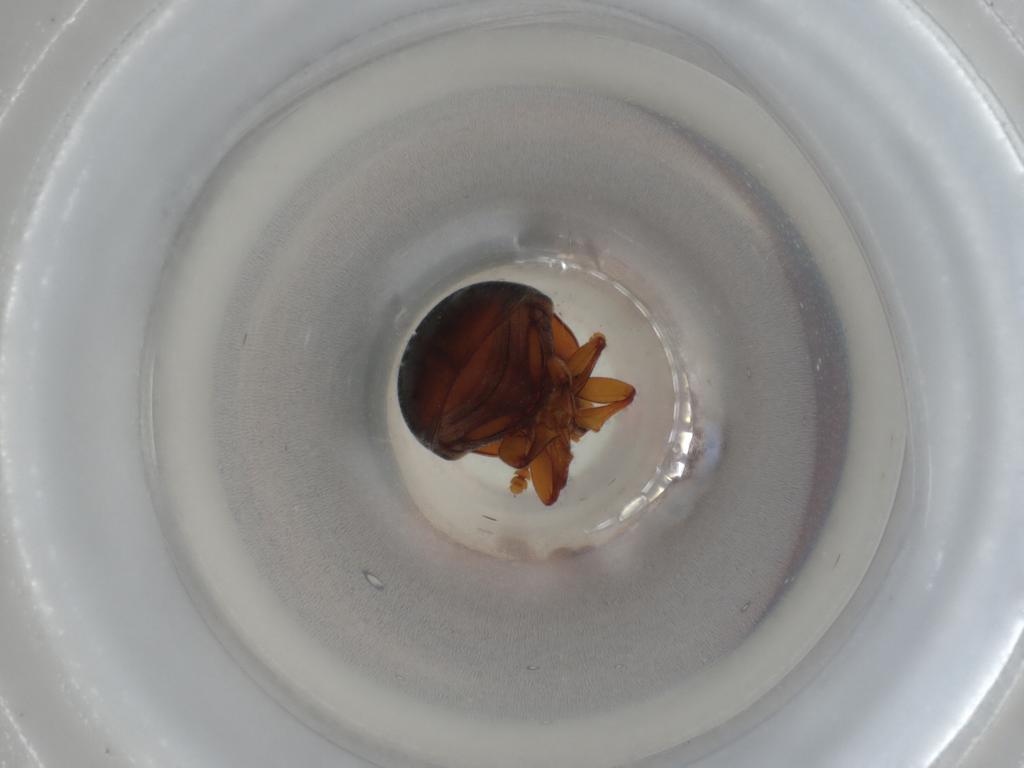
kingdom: Animalia
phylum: Arthropoda
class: Insecta
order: Coleoptera
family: Erotylidae
